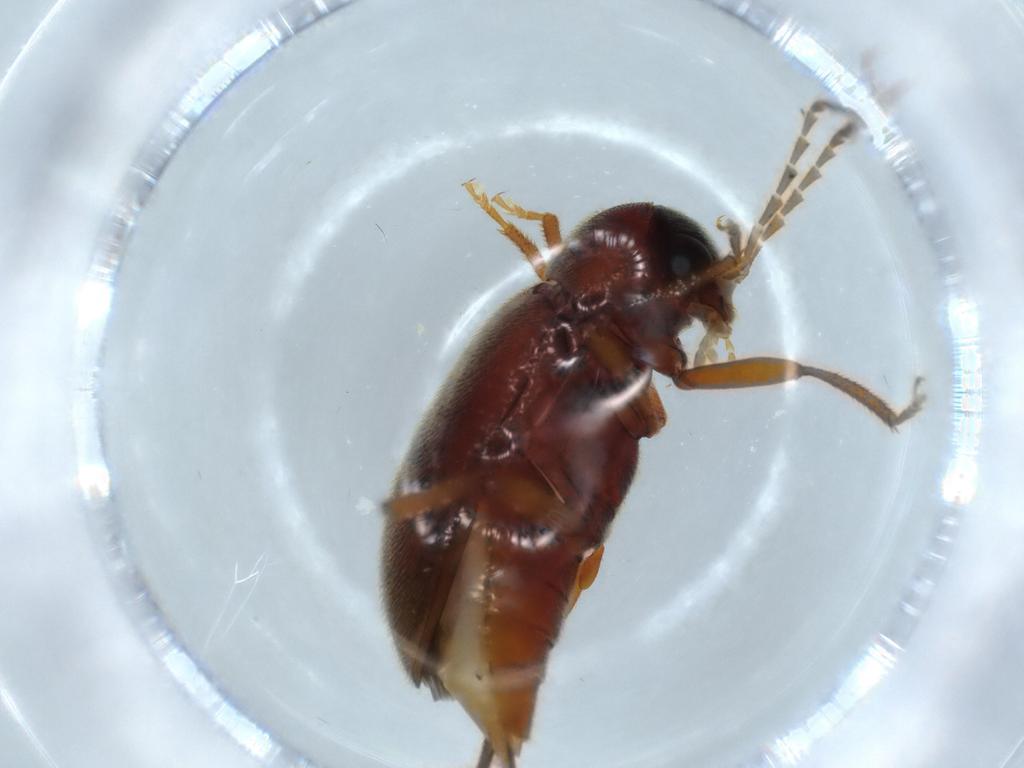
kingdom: Animalia
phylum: Arthropoda
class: Insecta
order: Coleoptera
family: Ptilodactylidae
